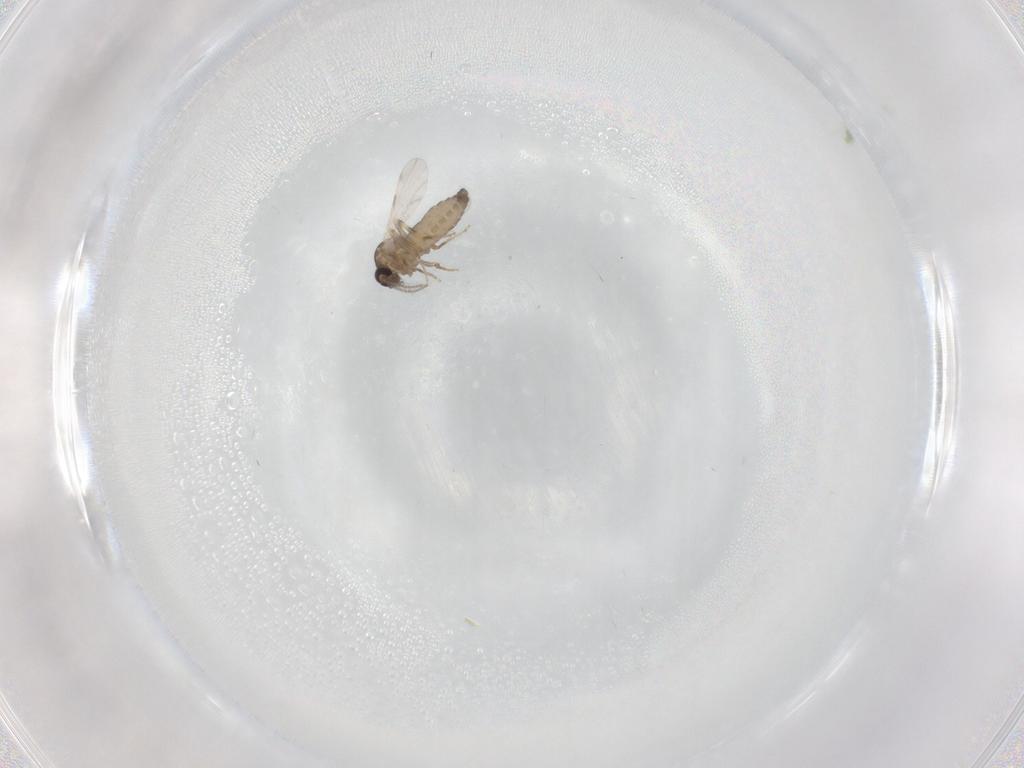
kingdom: Animalia
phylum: Arthropoda
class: Insecta
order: Diptera
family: Ceratopogonidae
